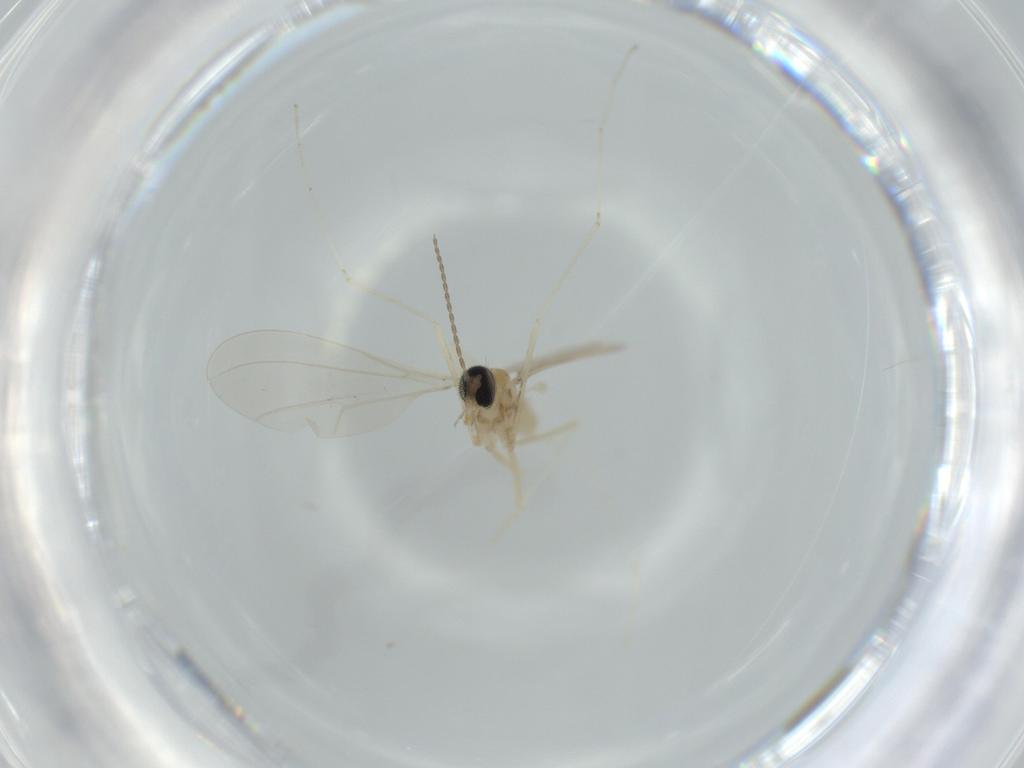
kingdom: Animalia
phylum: Arthropoda
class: Insecta
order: Diptera
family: Cecidomyiidae
